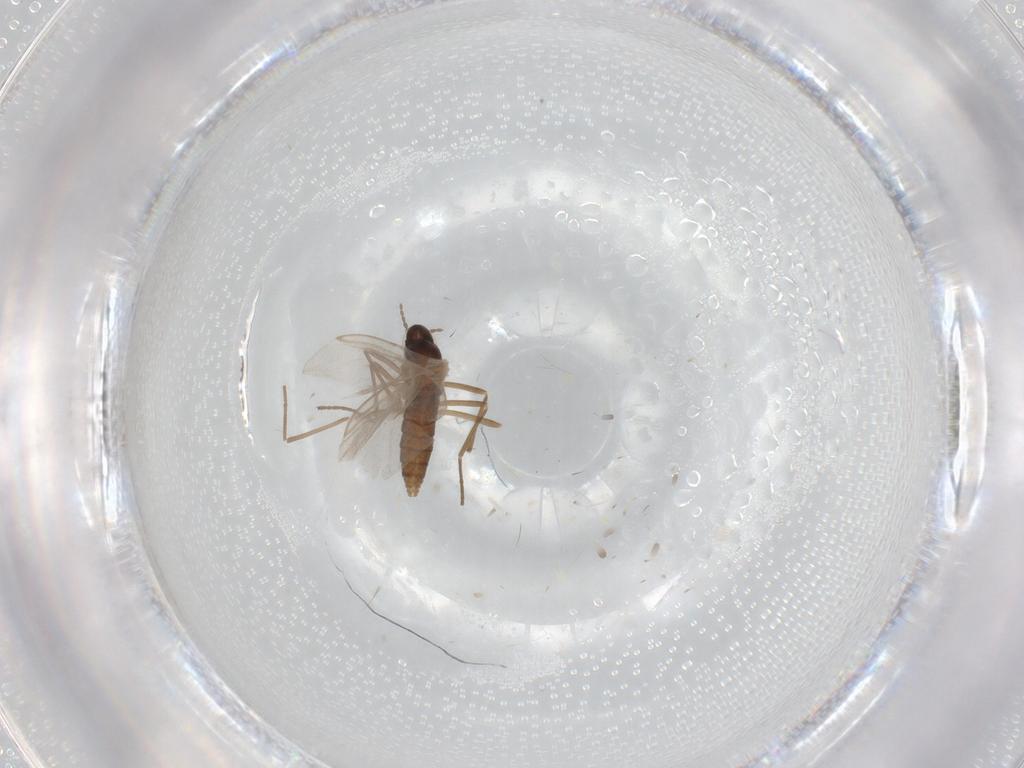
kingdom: Animalia
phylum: Arthropoda
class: Insecta
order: Diptera
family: Cecidomyiidae
